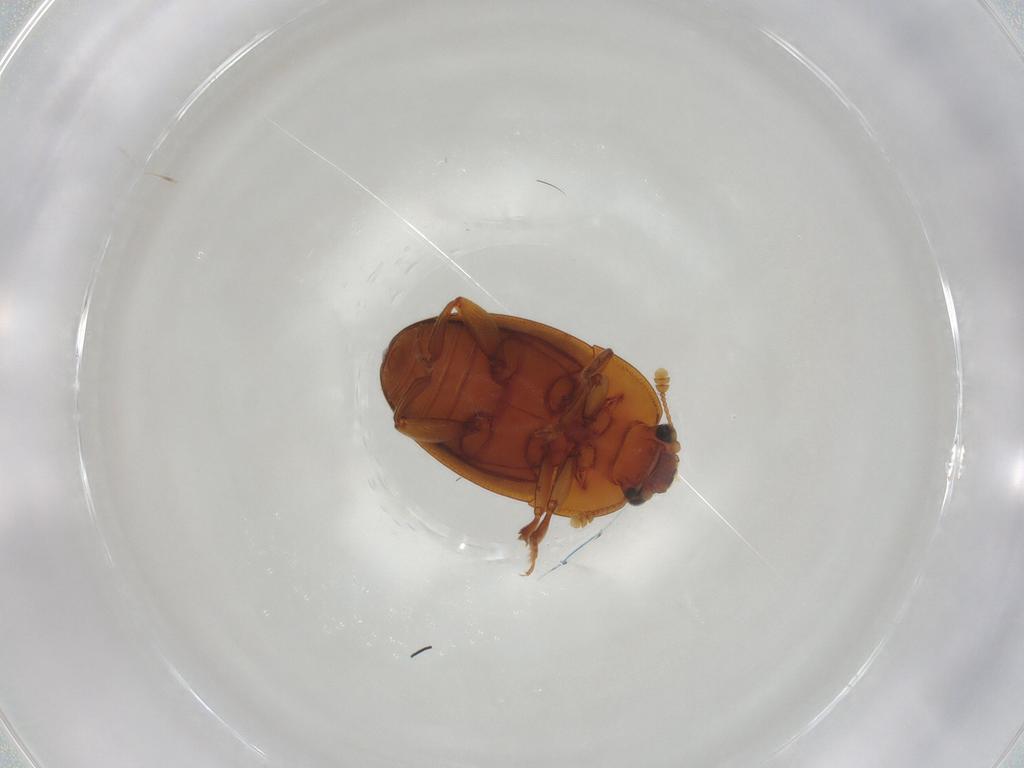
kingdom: Animalia
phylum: Arthropoda
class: Insecta
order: Coleoptera
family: Nitidulidae
